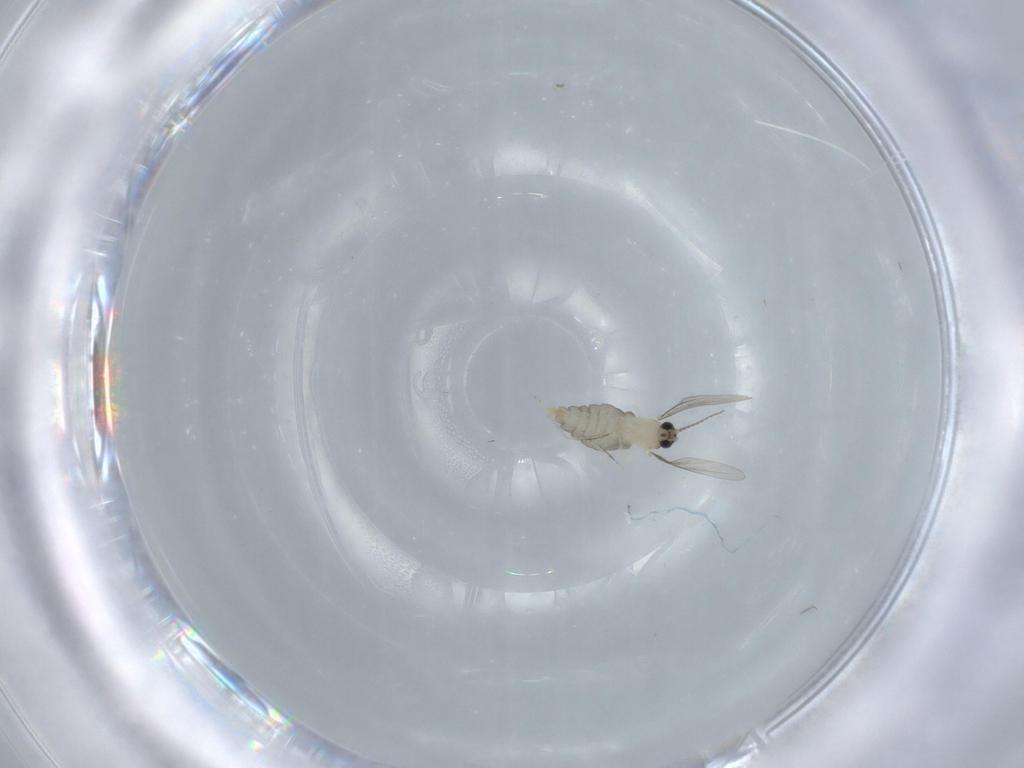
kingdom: Animalia
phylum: Arthropoda
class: Insecta
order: Diptera
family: Cecidomyiidae
